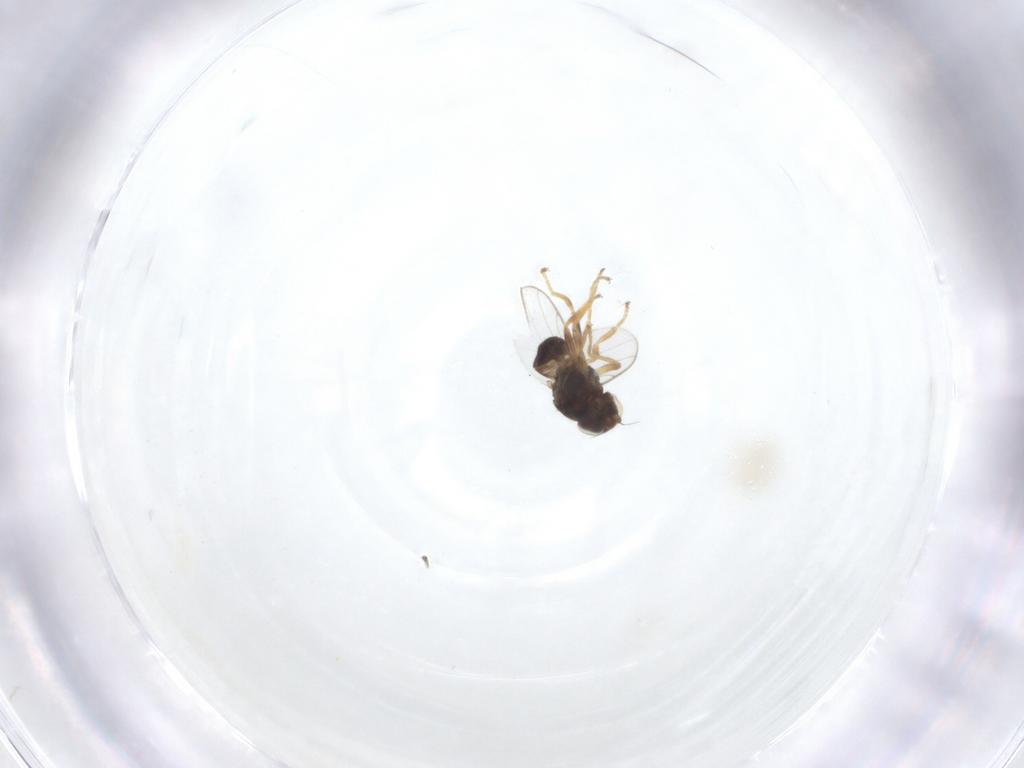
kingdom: Animalia
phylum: Arthropoda
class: Insecta
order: Diptera
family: Chloropidae
